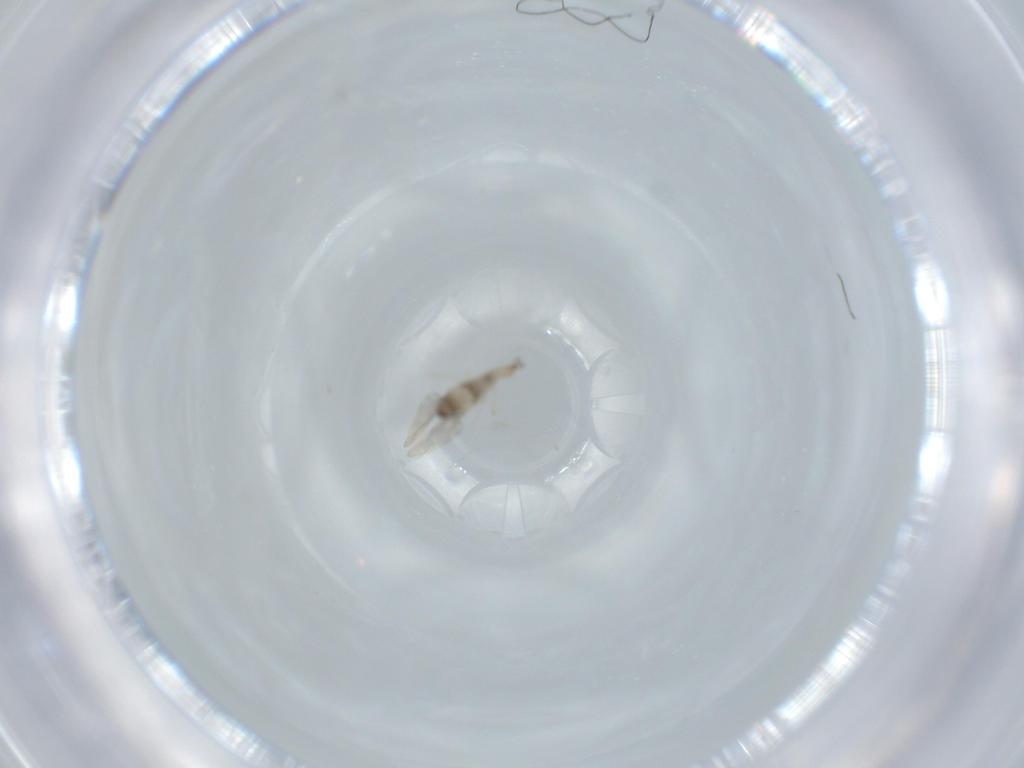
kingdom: Animalia
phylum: Arthropoda
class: Insecta
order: Diptera
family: Cecidomyiidae
